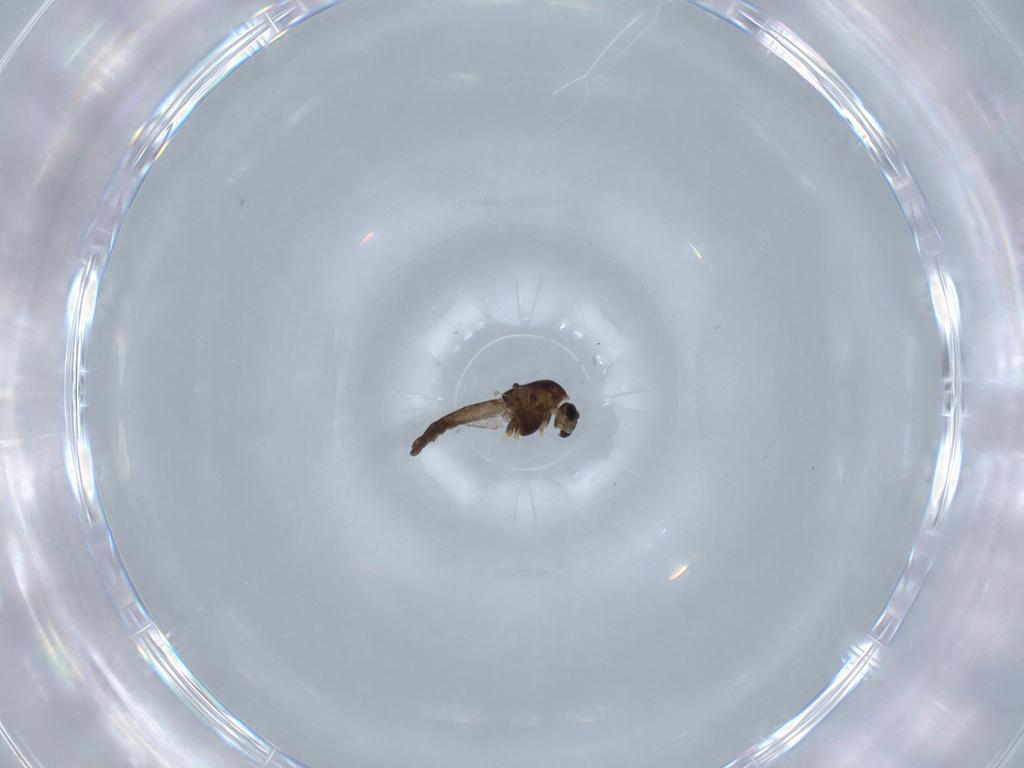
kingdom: Animalia
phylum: Arthropoda
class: Insecta
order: Diptera
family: Chironomidae
